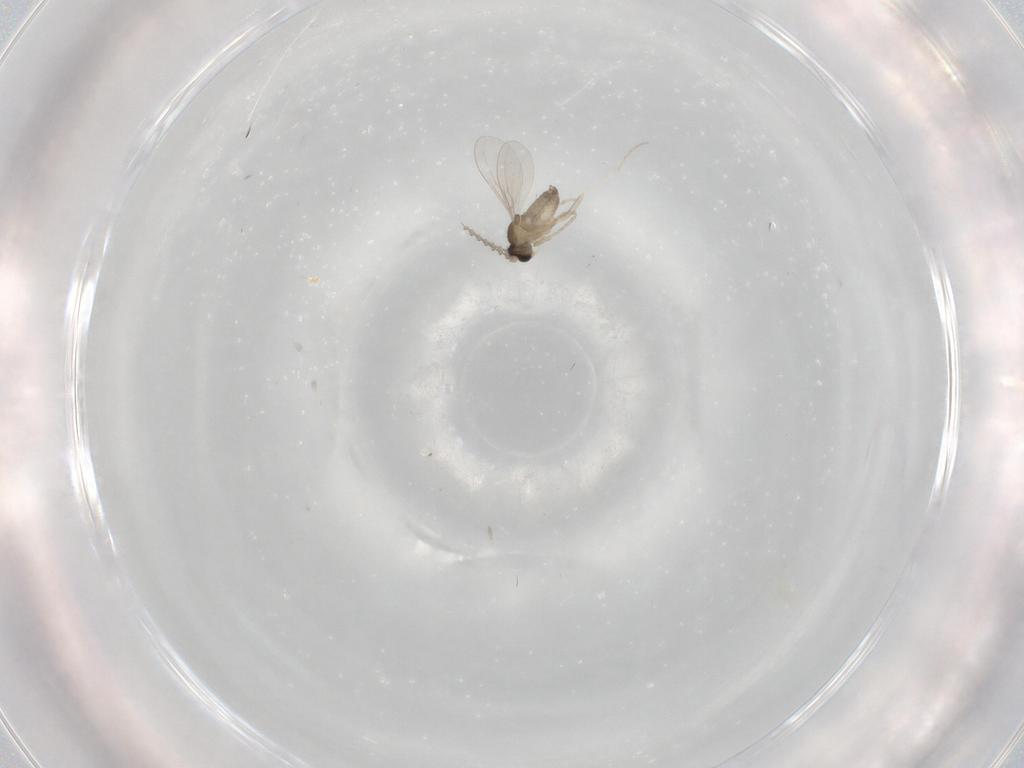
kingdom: Animalia
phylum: Arthropoda
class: Insecta
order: Diptera
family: Cecidomyiidae
